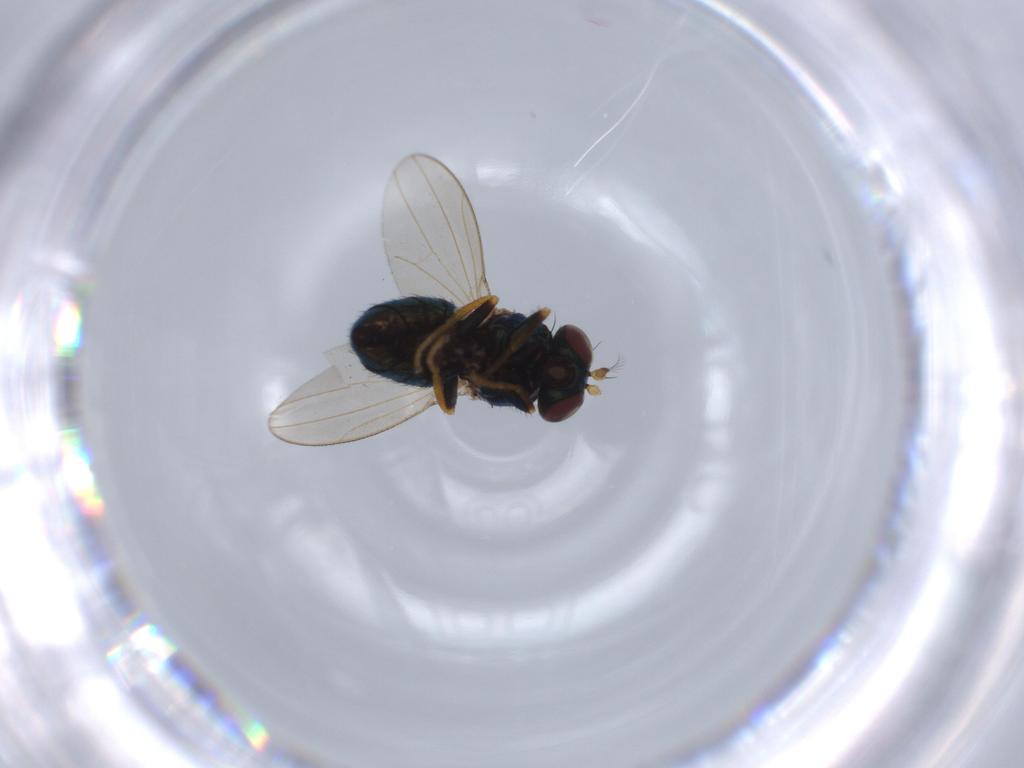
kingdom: Animalia
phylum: Arthropoda
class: Insecta
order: Diptera
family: Ephydridae
